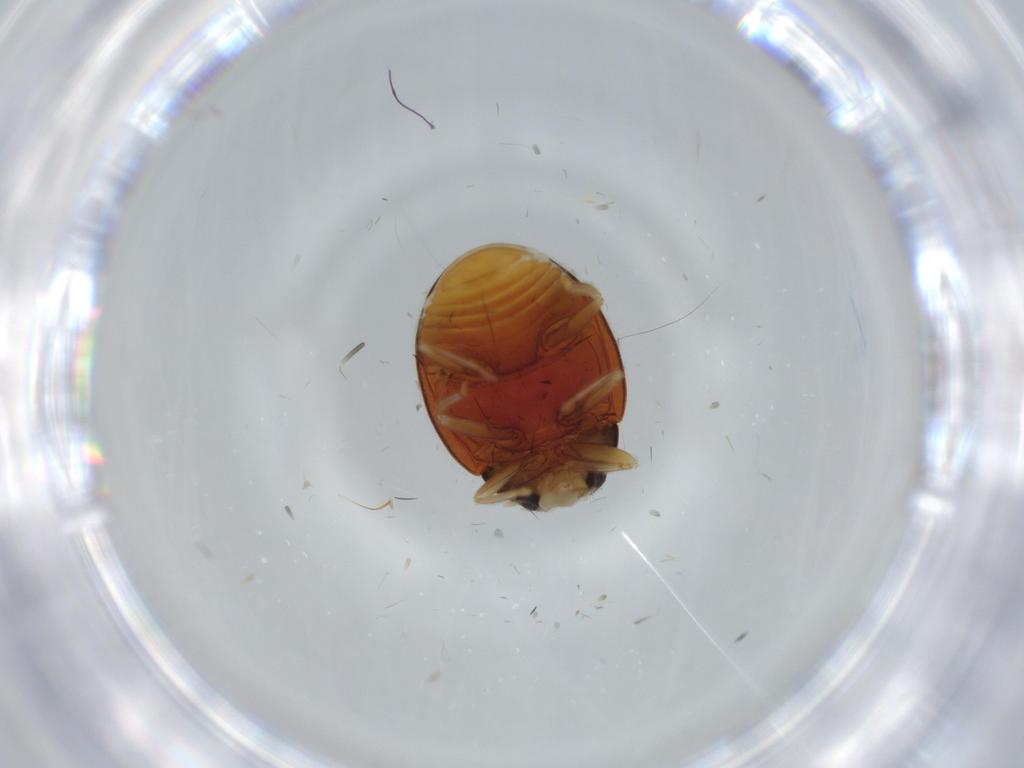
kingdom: Animalia
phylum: Arthropoda
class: Insecta
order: Coleoptera
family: Coccinellidae
